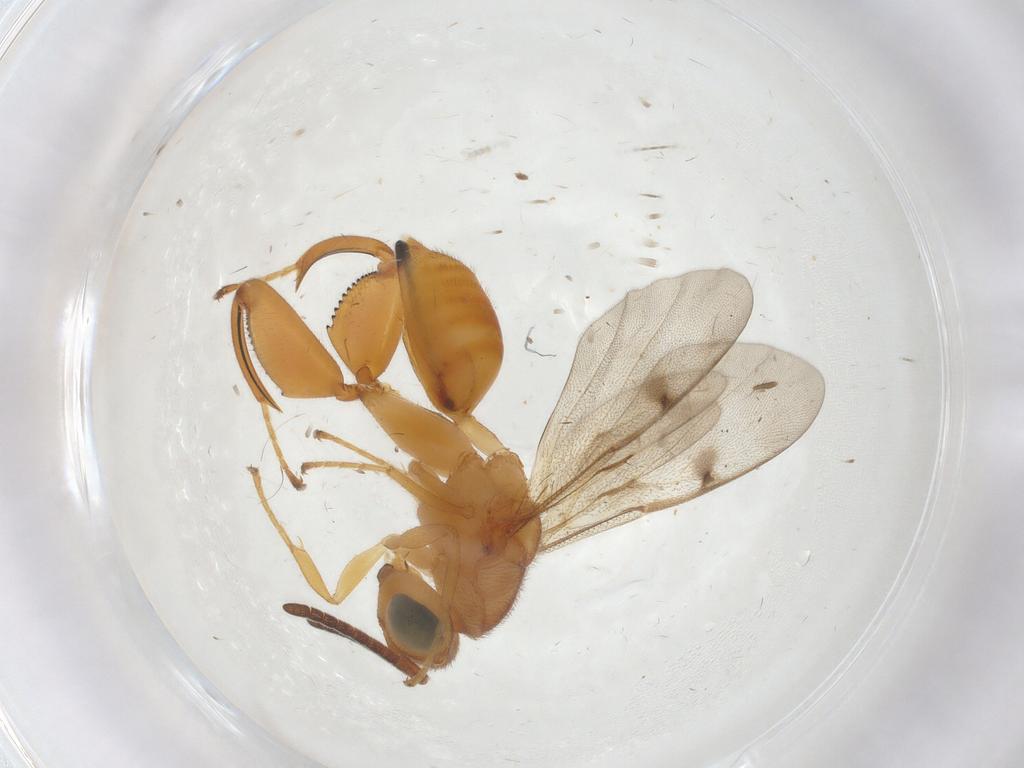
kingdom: Animalia
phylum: Arthropoda
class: Insecta
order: Hymenoptera
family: Chalcididae
